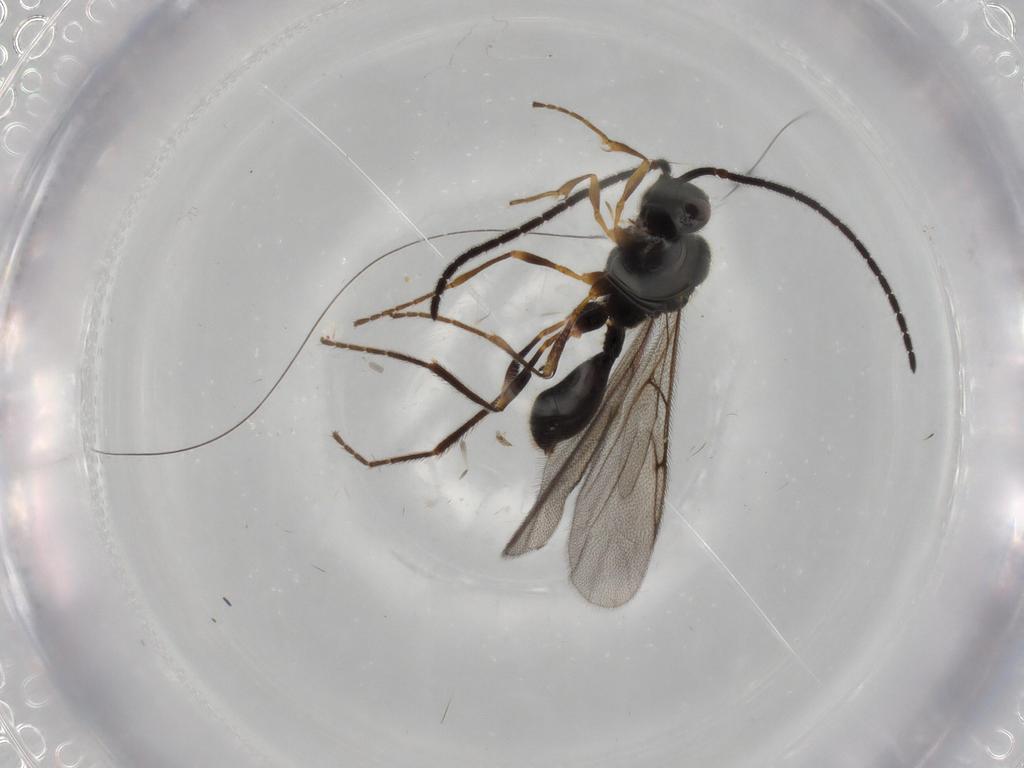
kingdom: Animalia
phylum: Arthropoda
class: Insecta
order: Hymenoptera
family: Diapriidae
